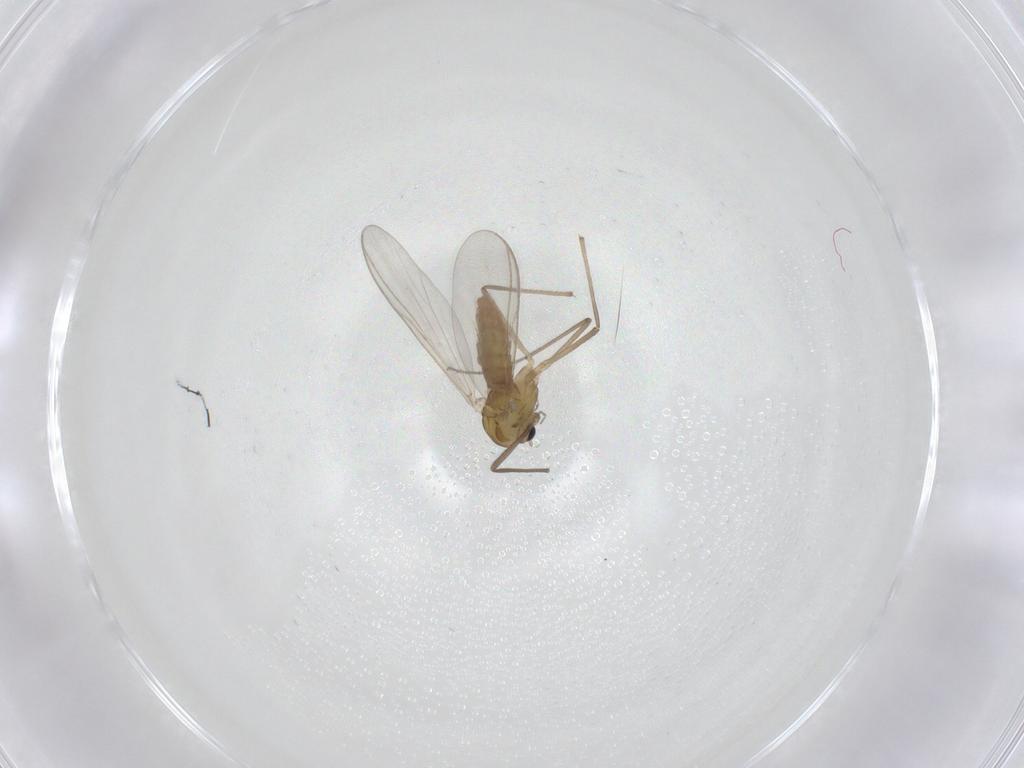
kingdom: Animalia
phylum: Arthropoda
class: Insecta
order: Diptera
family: Chironomidae
